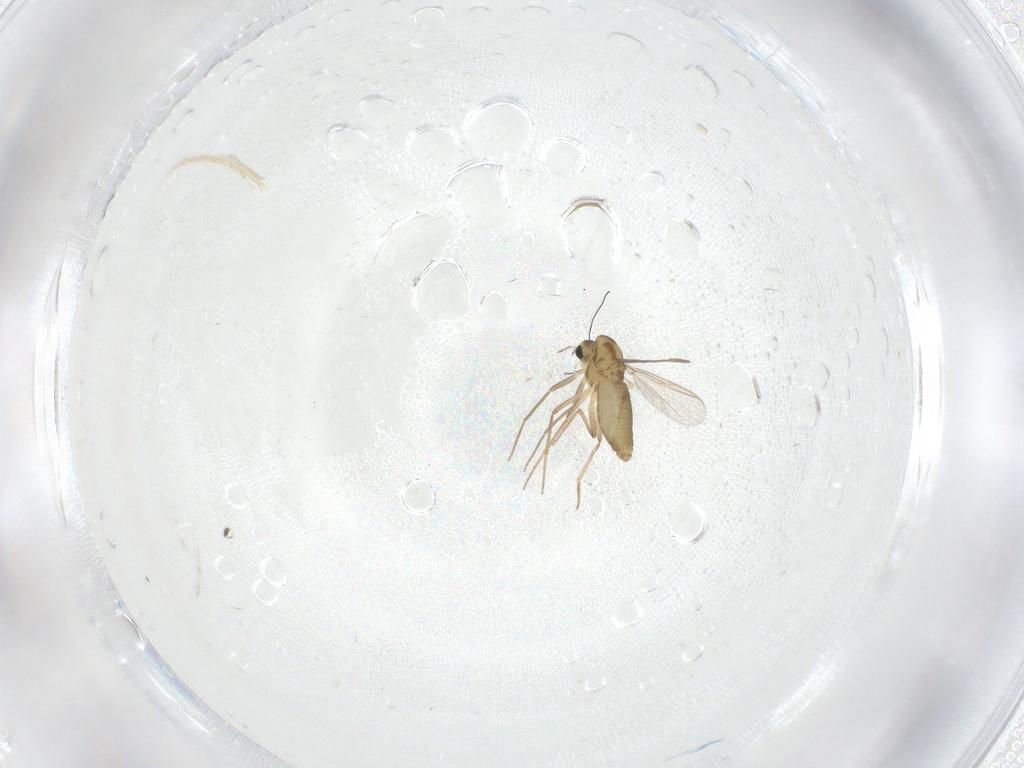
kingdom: Animalia
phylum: Arthropoda
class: Insecta
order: Diptera
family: Chironomidae
